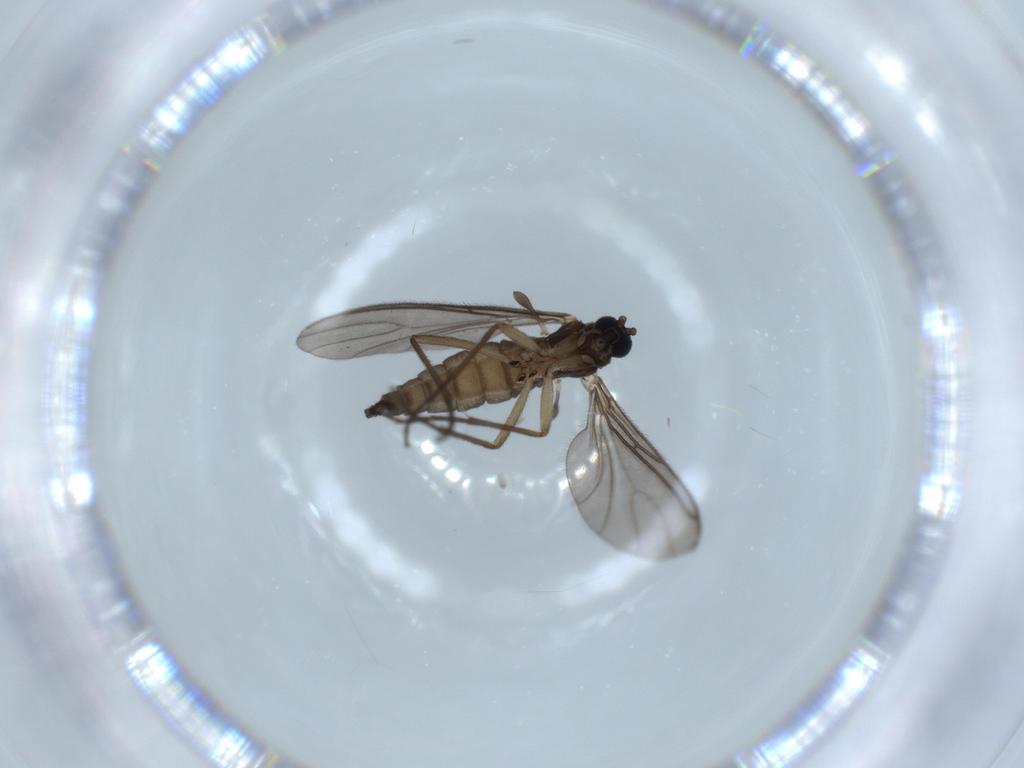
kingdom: Animalia
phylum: Arthropoda
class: Insecta
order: Diptera
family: Sciaridae
